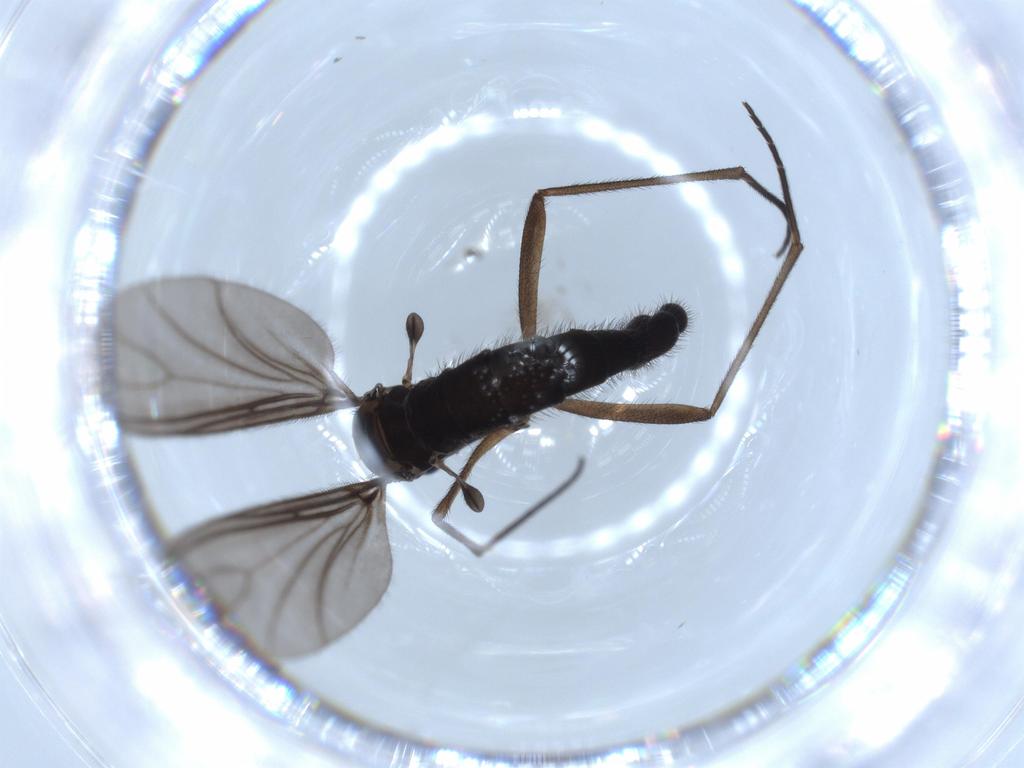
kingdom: Animalia
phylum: Arthropoda
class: Insecta
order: Diptera
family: Sciaridae
